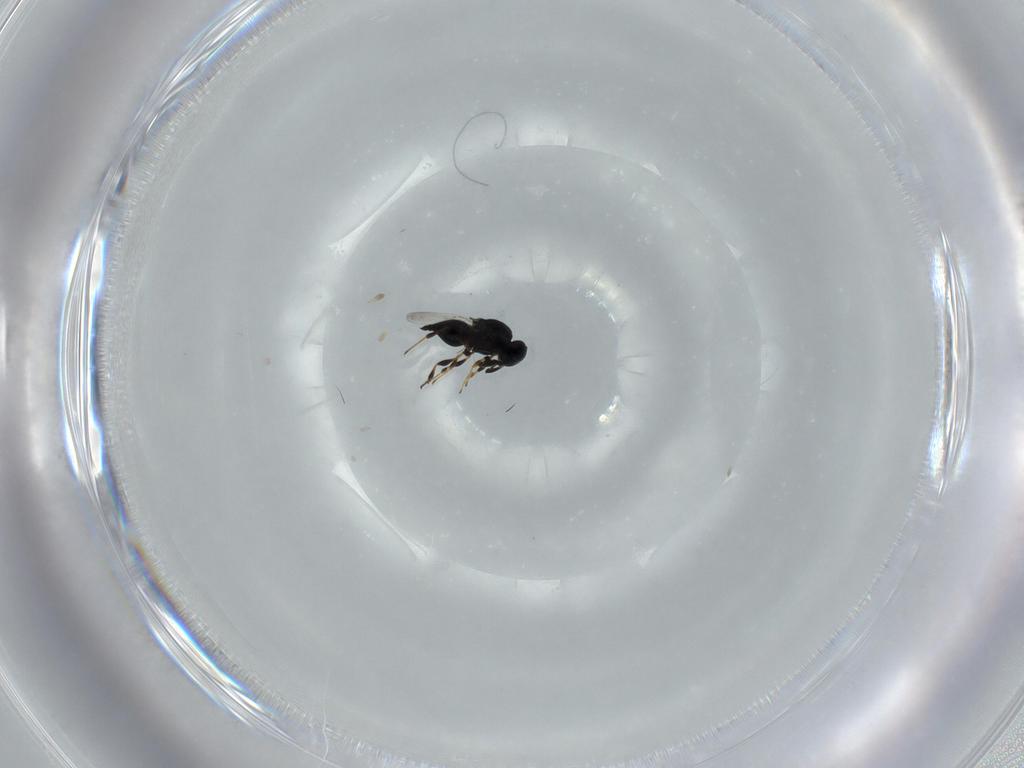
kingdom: Animalia
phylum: Arthropoda
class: Insecta
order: Hymenoptera
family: Platygastridae
